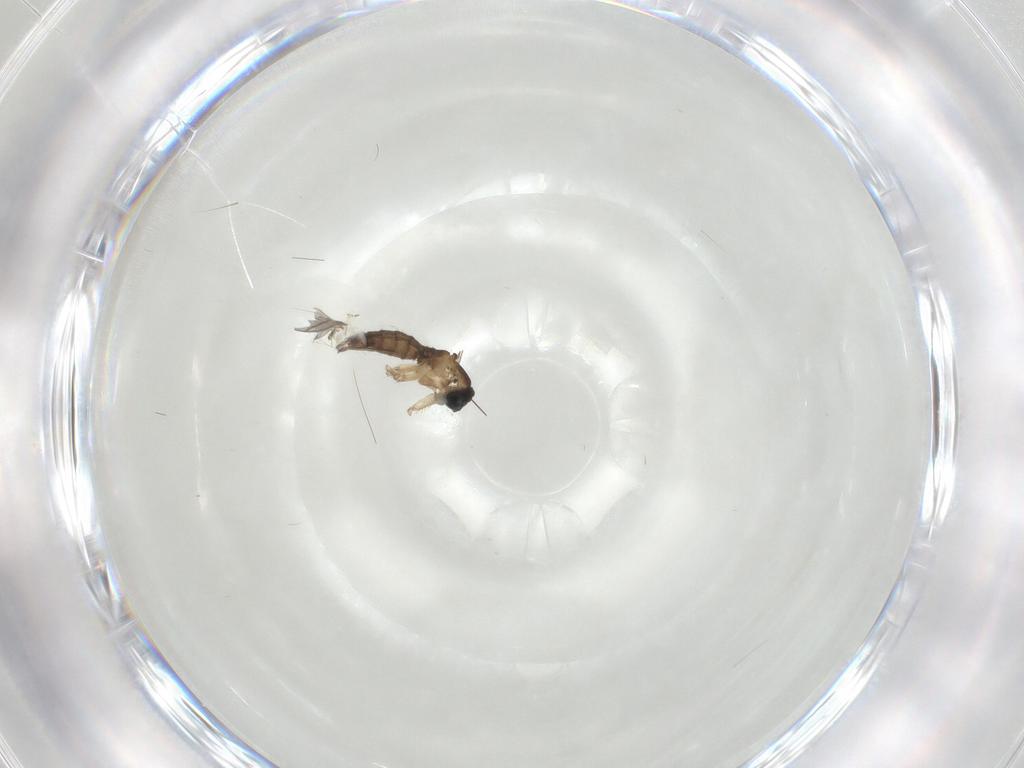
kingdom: Animalia
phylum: Arthropoda
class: Insecta
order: Diptera
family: Sciaridae
